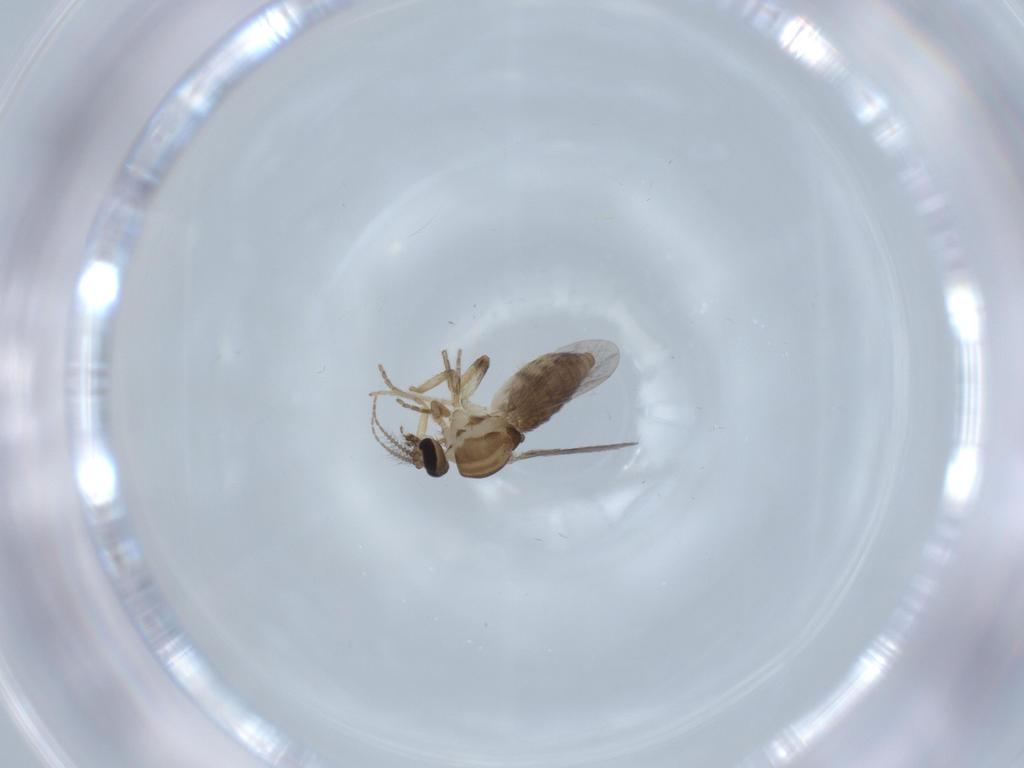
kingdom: Animalia
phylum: Arthropoda
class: Insecta
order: Diptera
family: Ceratopogonidae
